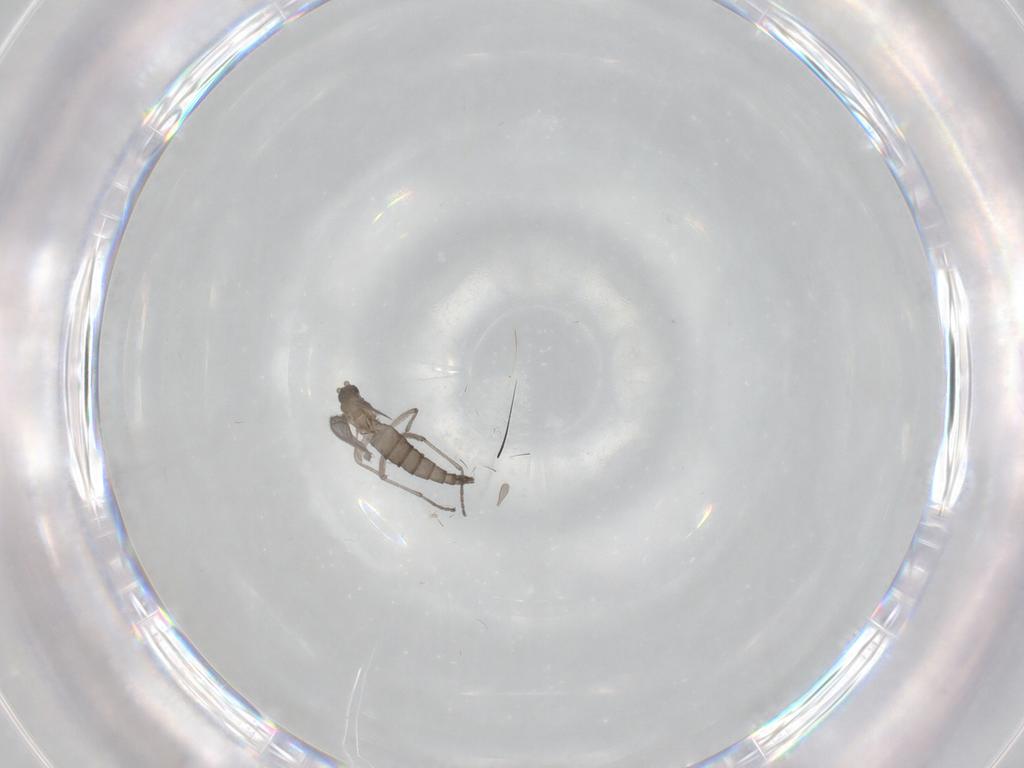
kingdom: Animalia
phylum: Arthropoda
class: Insecta
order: Diptera
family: Sciaridae
